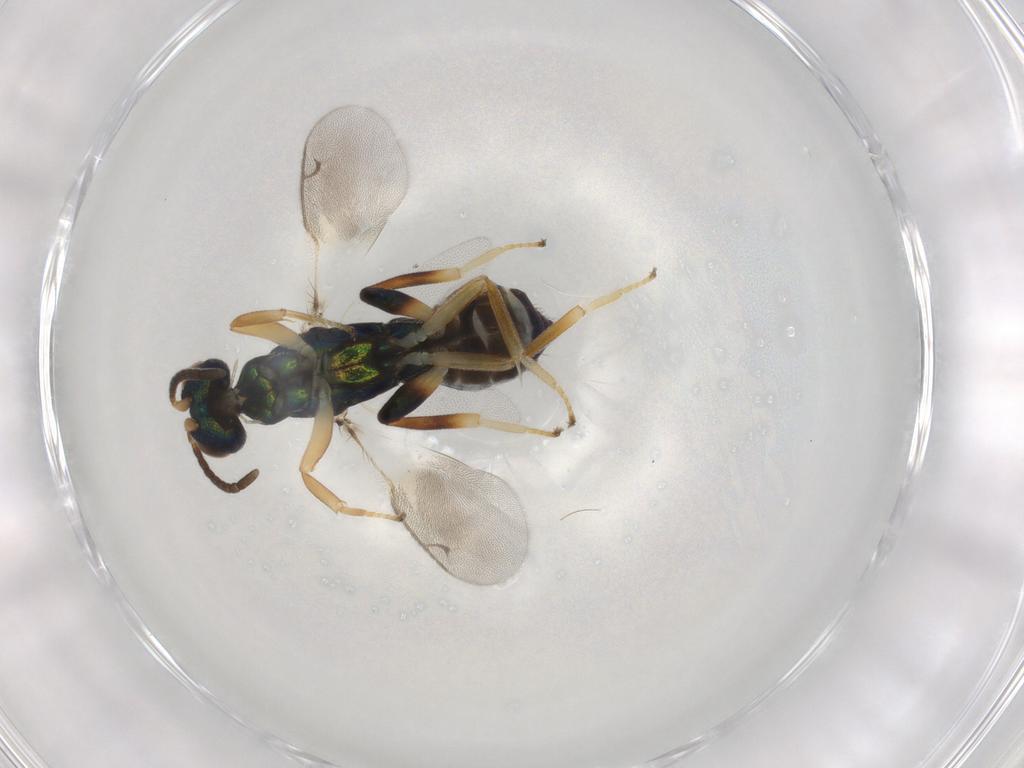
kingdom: Animalia
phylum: Arthropoda
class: Insecta
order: Hymenoptera
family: Eupelmidae
